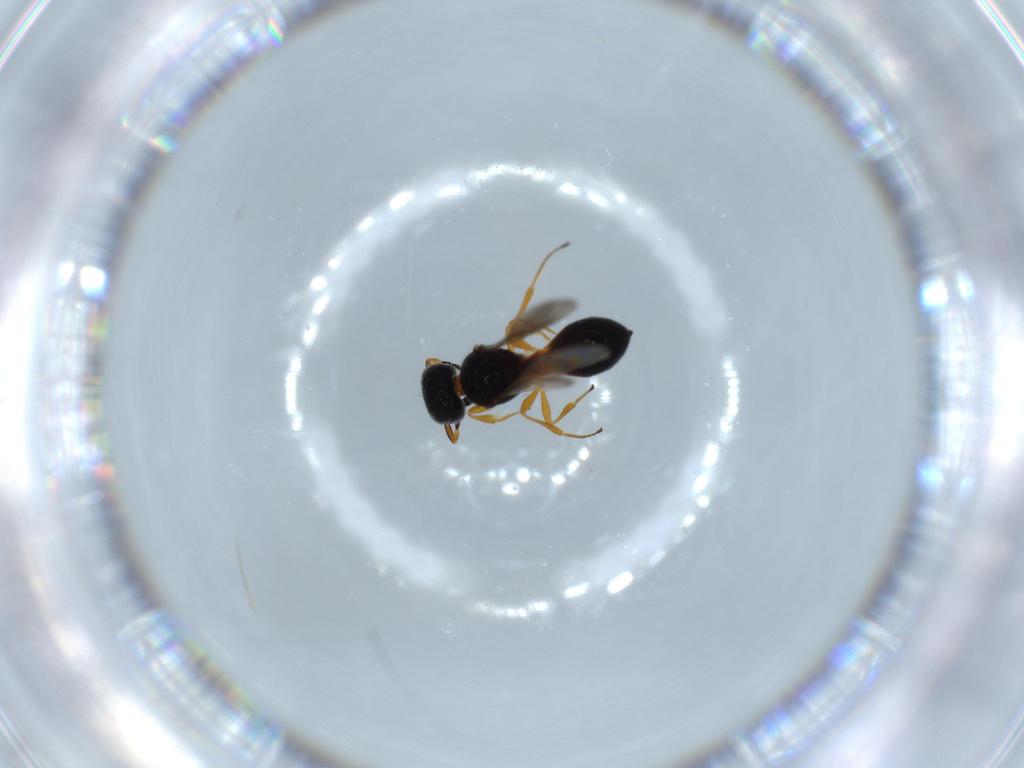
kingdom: Animalia
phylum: Arthropoda
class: Insecta
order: Hymenoptera
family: Scelionidae
